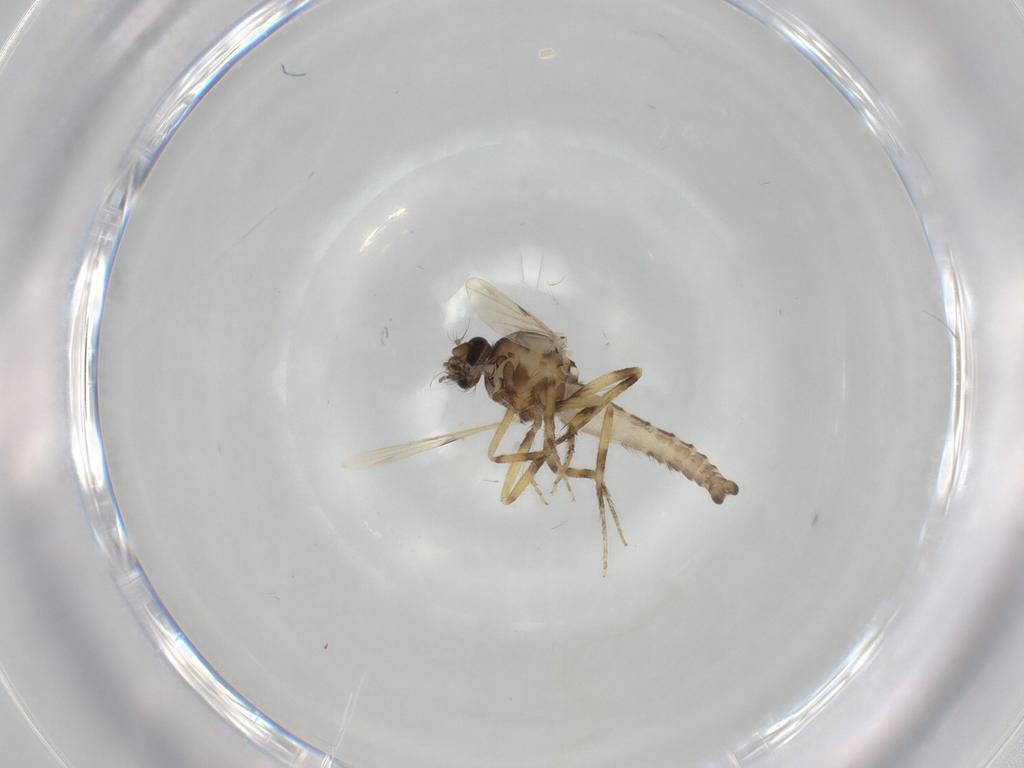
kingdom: Animalia
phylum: Arthropoda
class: Insecta
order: Diptera
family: Ceratopogonidae
